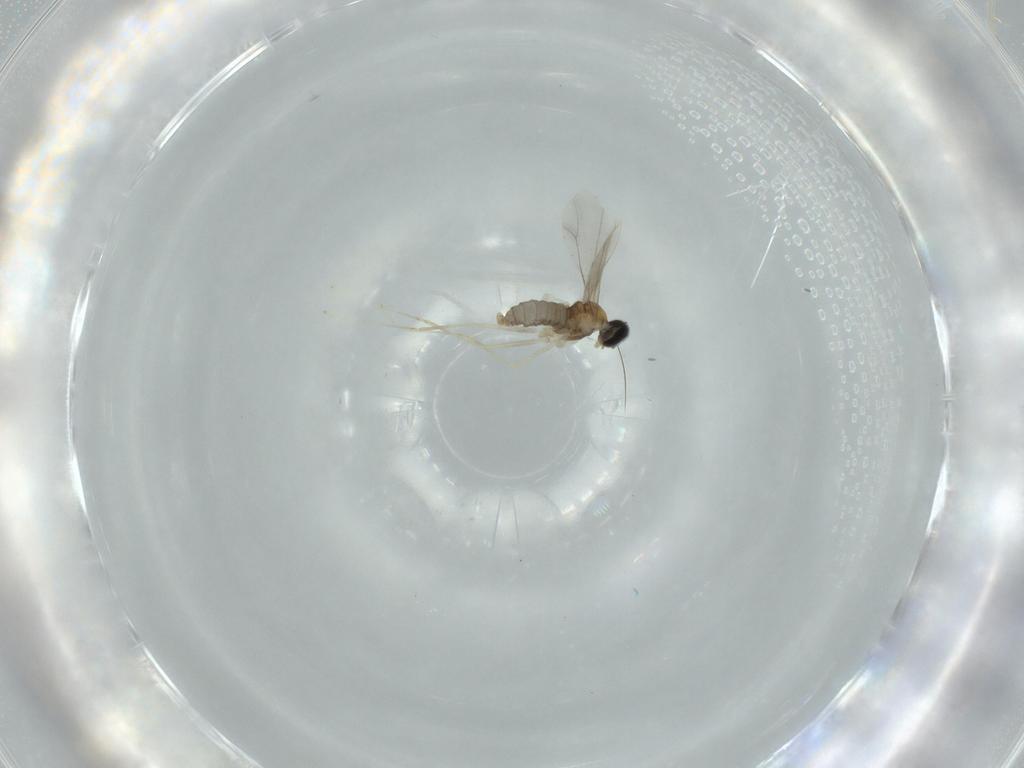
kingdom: Animalia
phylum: Arthropoda
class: Insecta
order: Diptera
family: Cecidomyiidae
